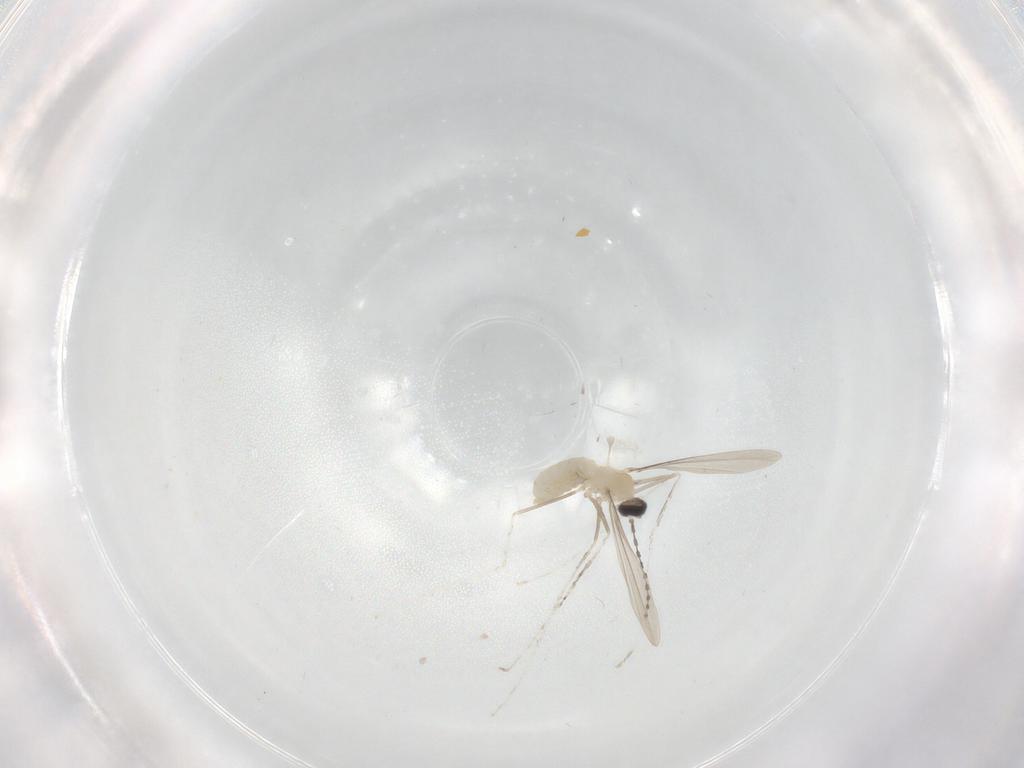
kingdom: Animalia
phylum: Arthropoda
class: Insecta
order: Diptera
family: Cecidomyiidae
